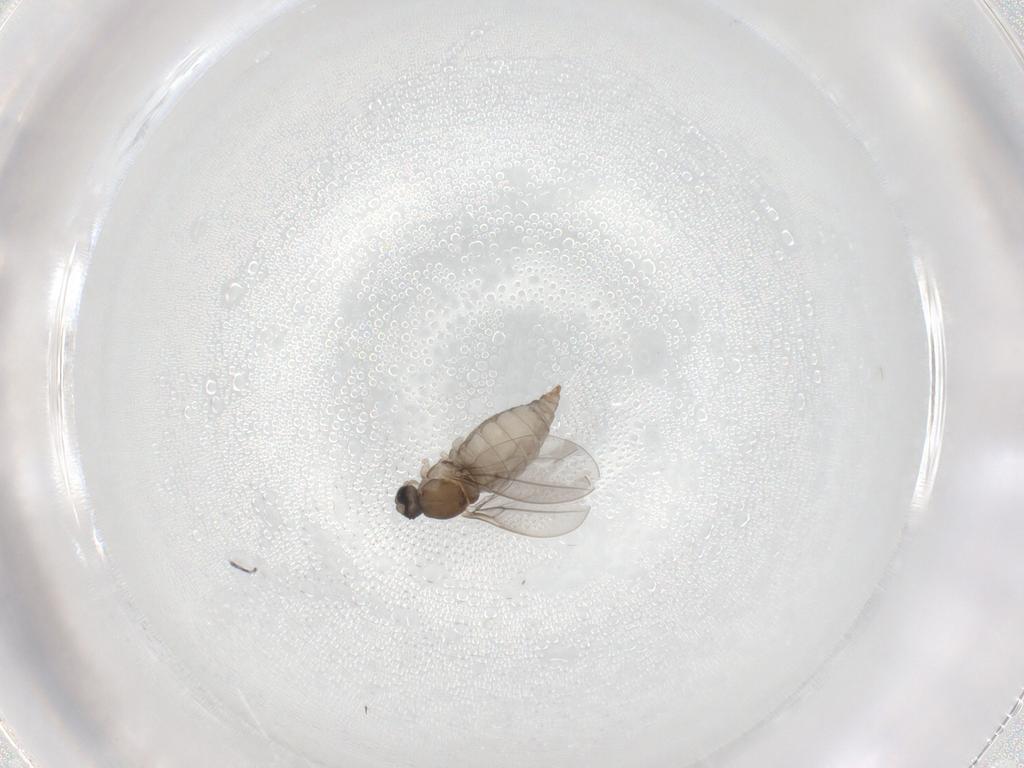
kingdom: Animalia
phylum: Arthropoda
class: Insecta
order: Diptera
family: Cecidomyiidae
